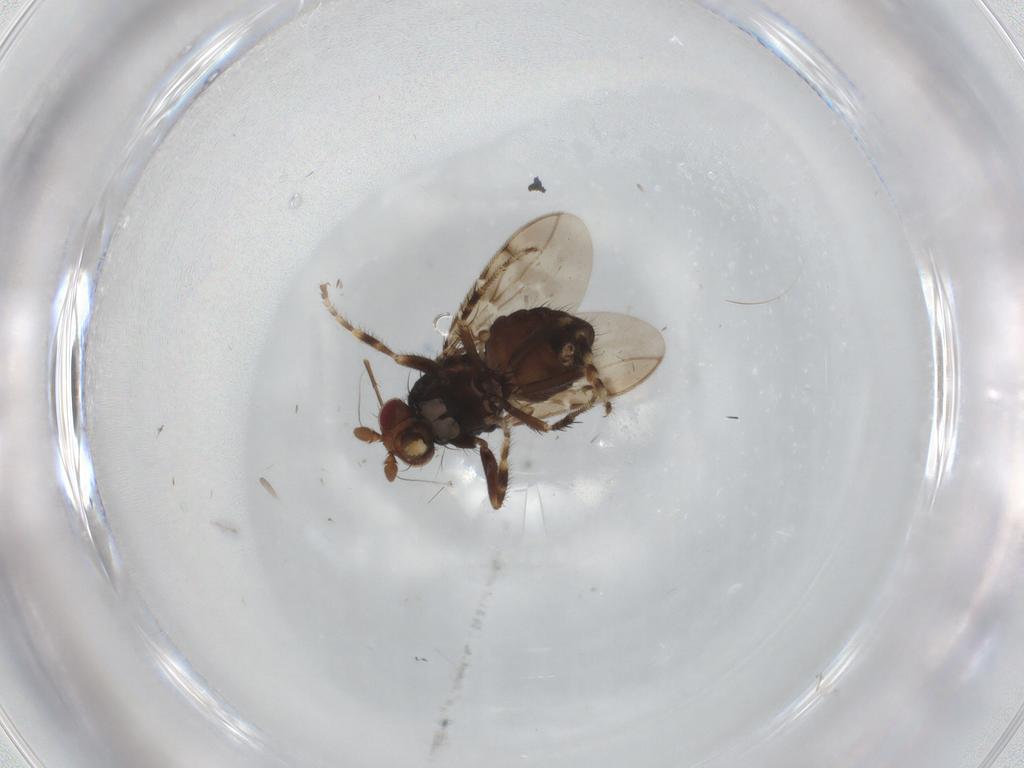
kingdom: Animalia
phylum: Arthropoda
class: Insecta
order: Diptera
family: Sphaeroceridae
